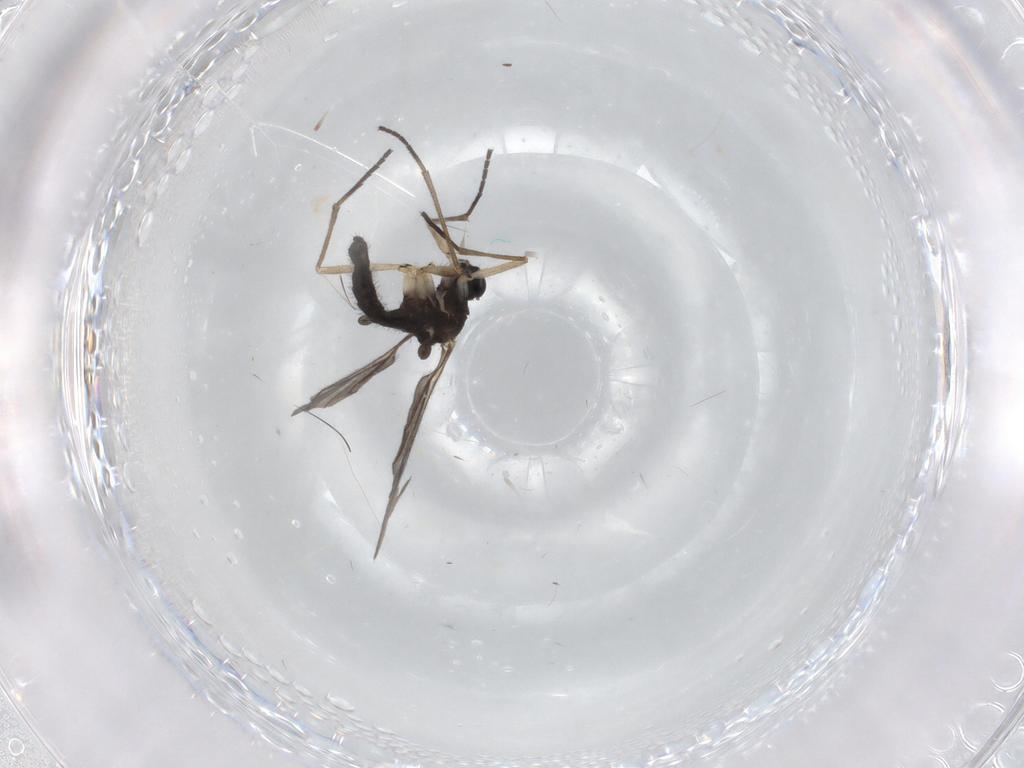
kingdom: Animalia
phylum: Arthropoda
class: Insecta
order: Diptera
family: Sciaridae
